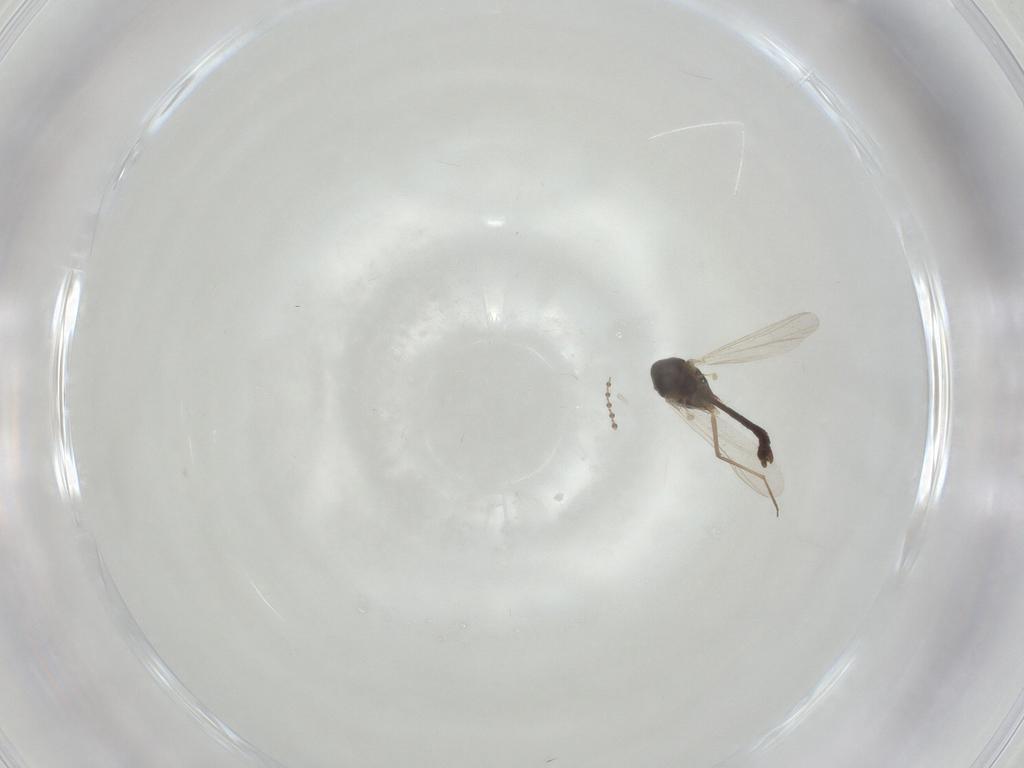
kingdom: Animalia
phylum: Arthropoda
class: Insecta
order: Diptera
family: Chironomidae
